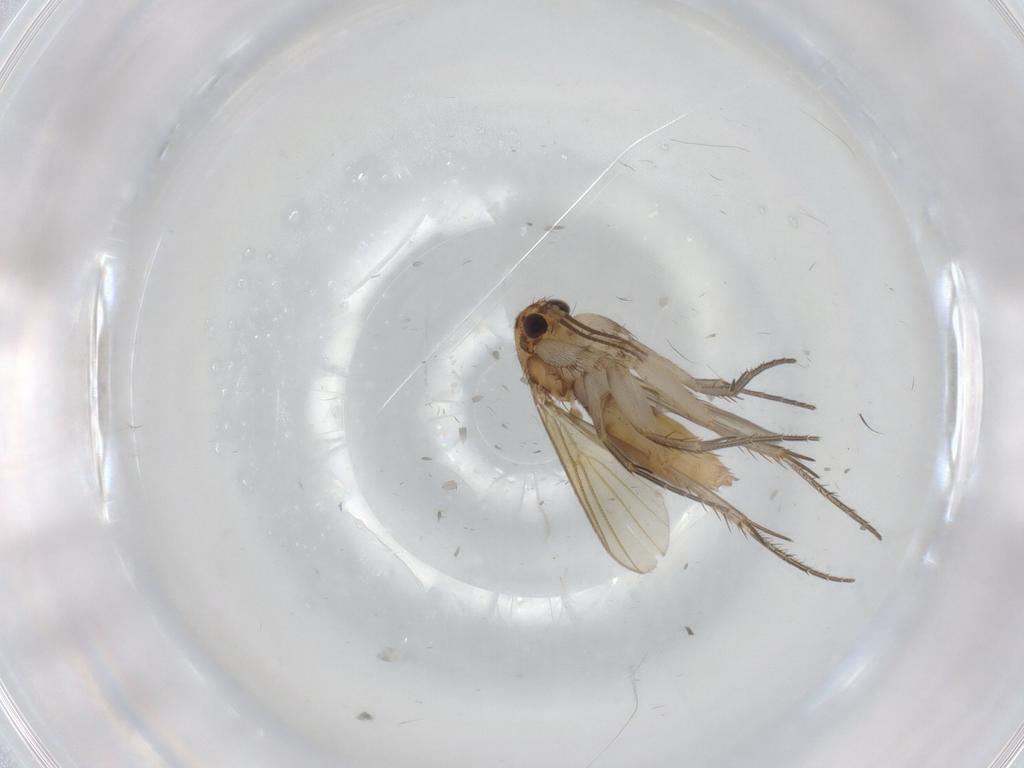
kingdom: Animalia
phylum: Arthropoda
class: Insecta
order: Diptera
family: Mycetophilidae
